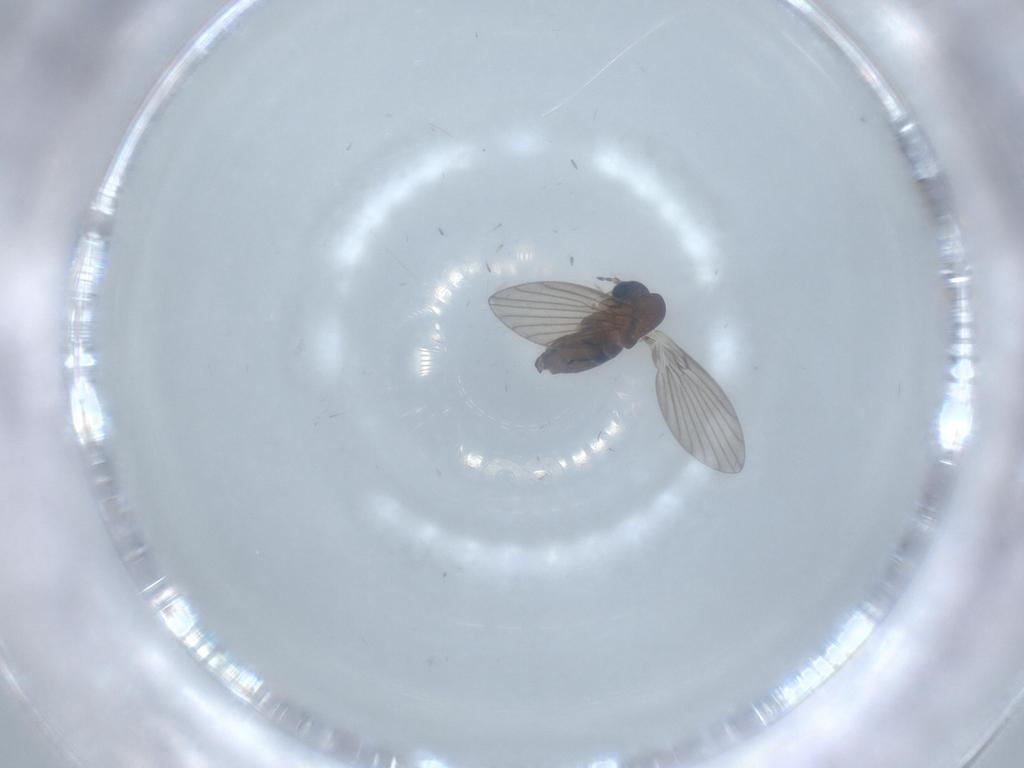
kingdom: Animalia
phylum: Arthropoda
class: Insecta
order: Diptera
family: Psychodidae
